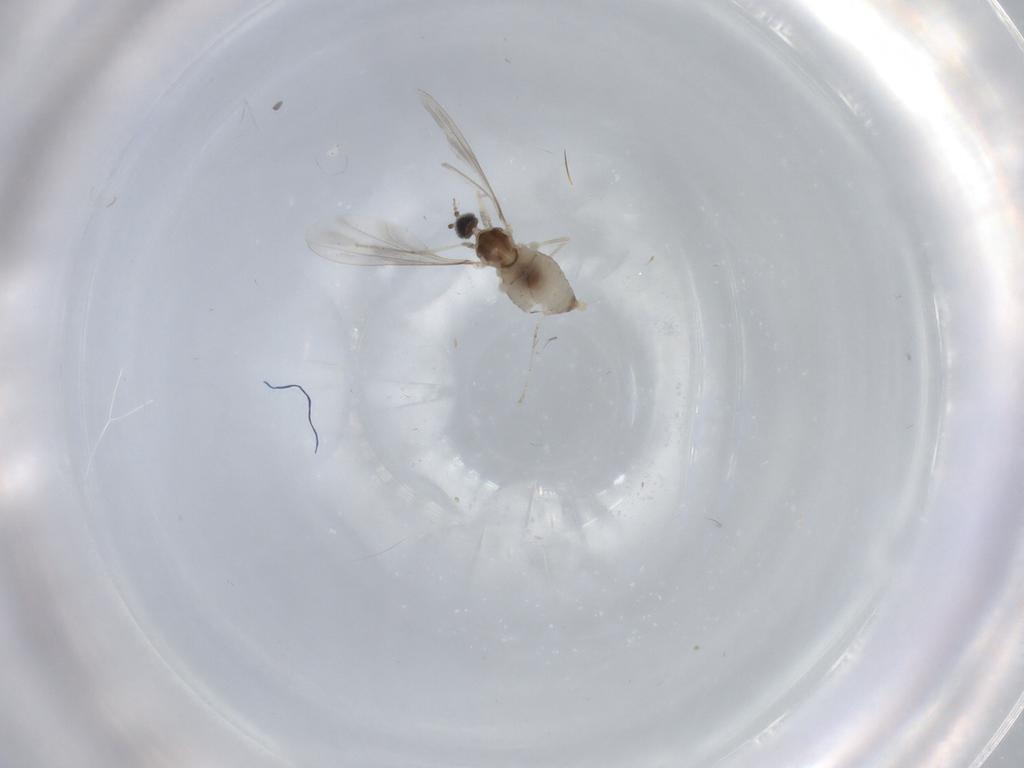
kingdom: Animalia
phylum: Arthropoda
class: Insecta
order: Diptera
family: Cecidomyiidae
